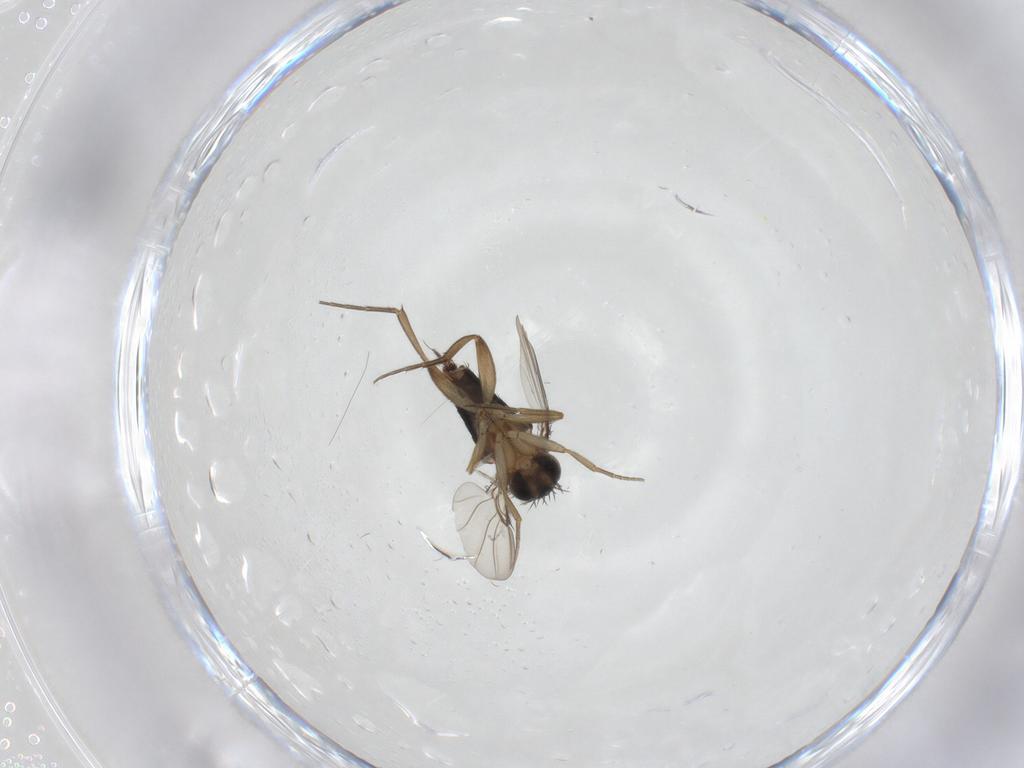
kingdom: Animalia
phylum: Arthropoda
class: Insecta
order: Diptera
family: Cecidomyiidae
